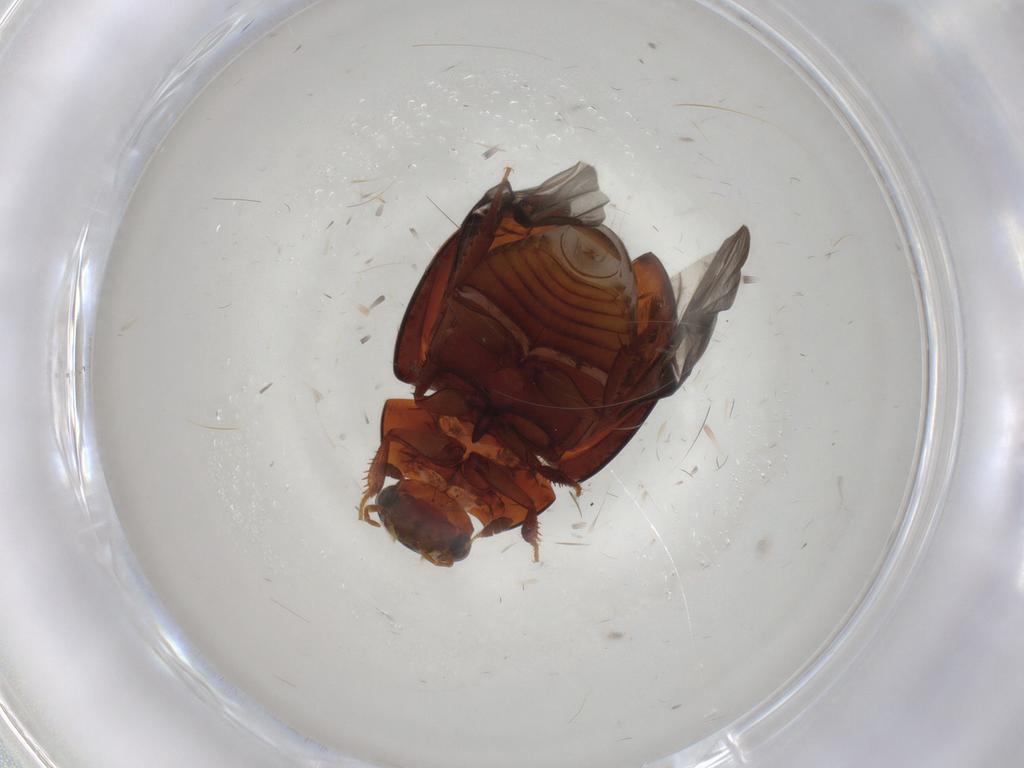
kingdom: Animalia
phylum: Arthropoda
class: Insecta
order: Coleoptera
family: Hydrophilidae
